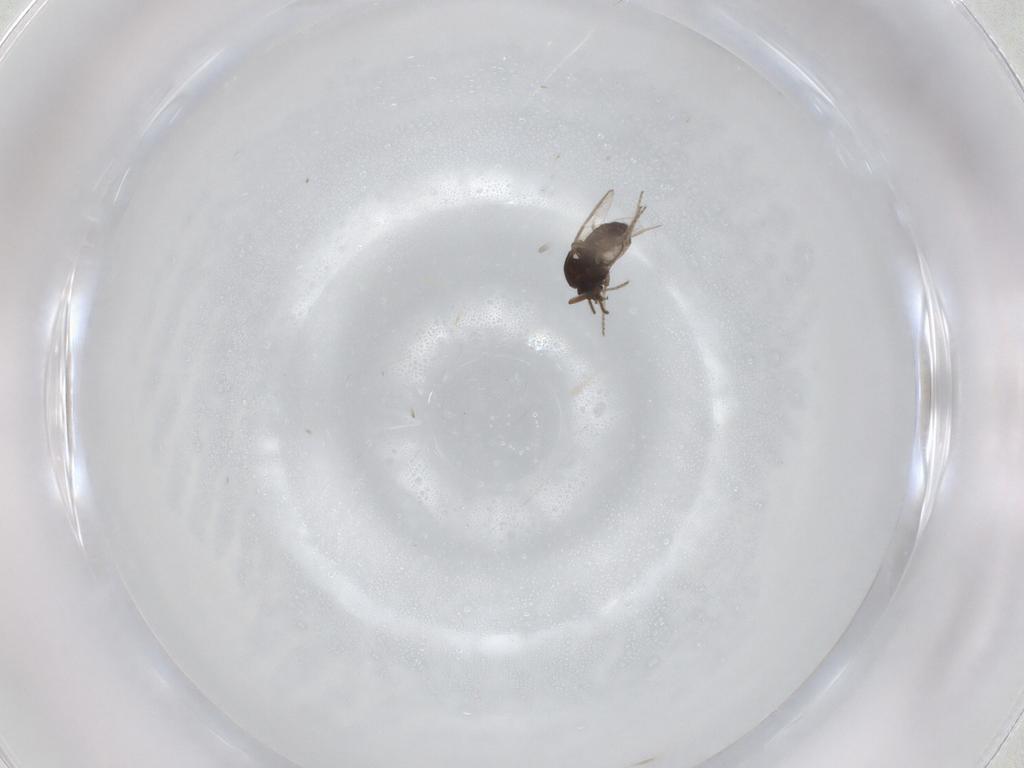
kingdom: Animalia
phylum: Arthropoda
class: Insecta
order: Diptera
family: Ceratopogonidae
